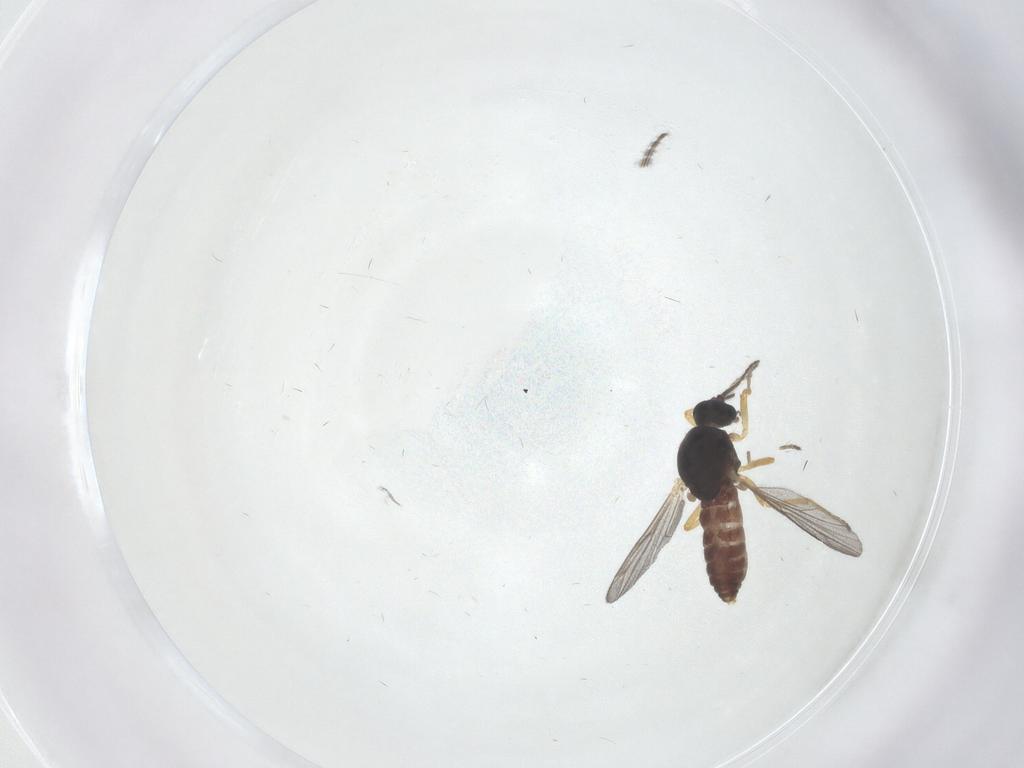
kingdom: Animalia
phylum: Arthropoda
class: Insecta
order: Diptera
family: Ceratopogonidae
